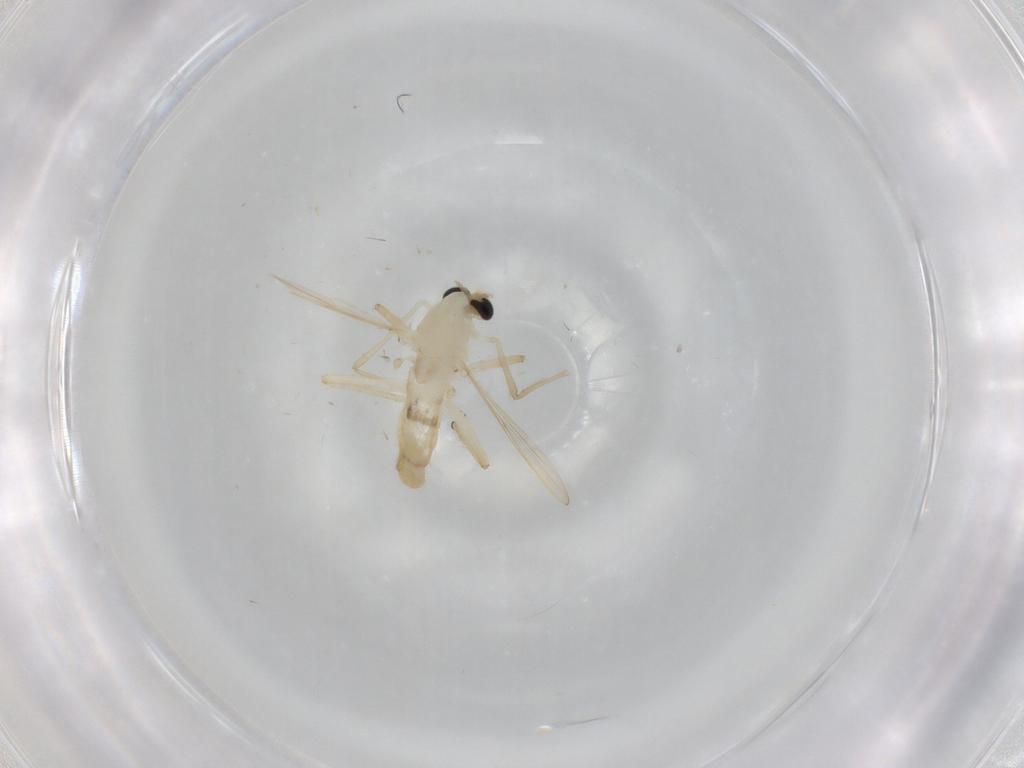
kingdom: Animalia
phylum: Arthropoda
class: Insecta
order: Diptera
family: Chironomidae
